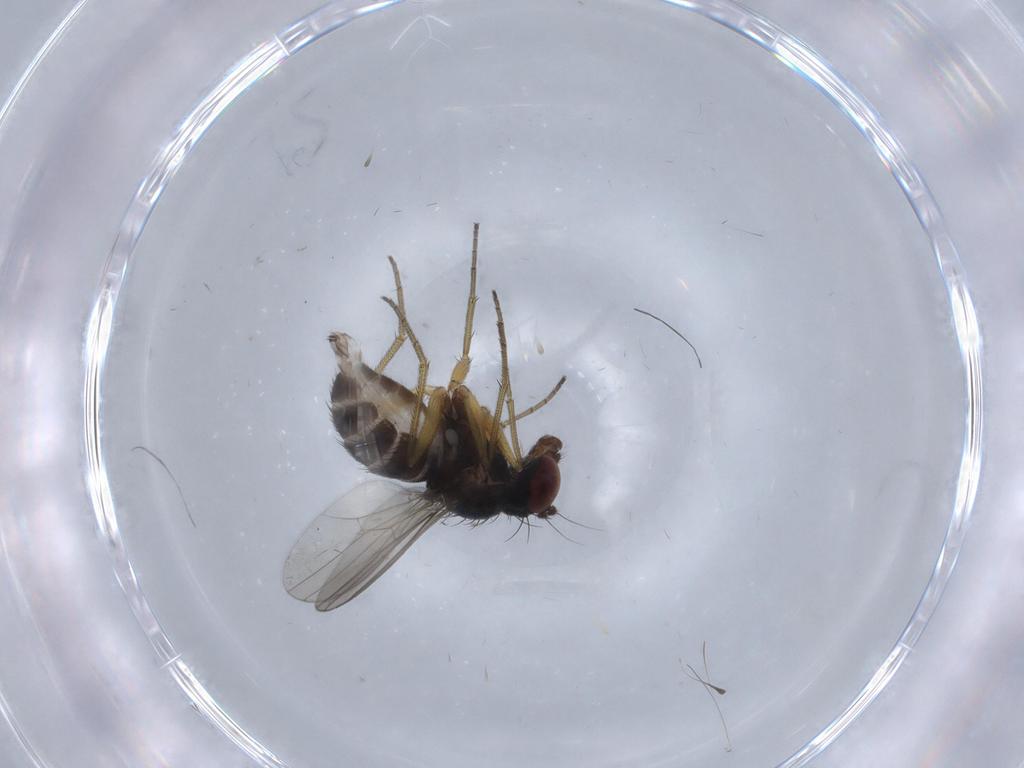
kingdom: Animalia
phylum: Arthropoda
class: Insecta
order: Diptera
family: Dolichopodidae
